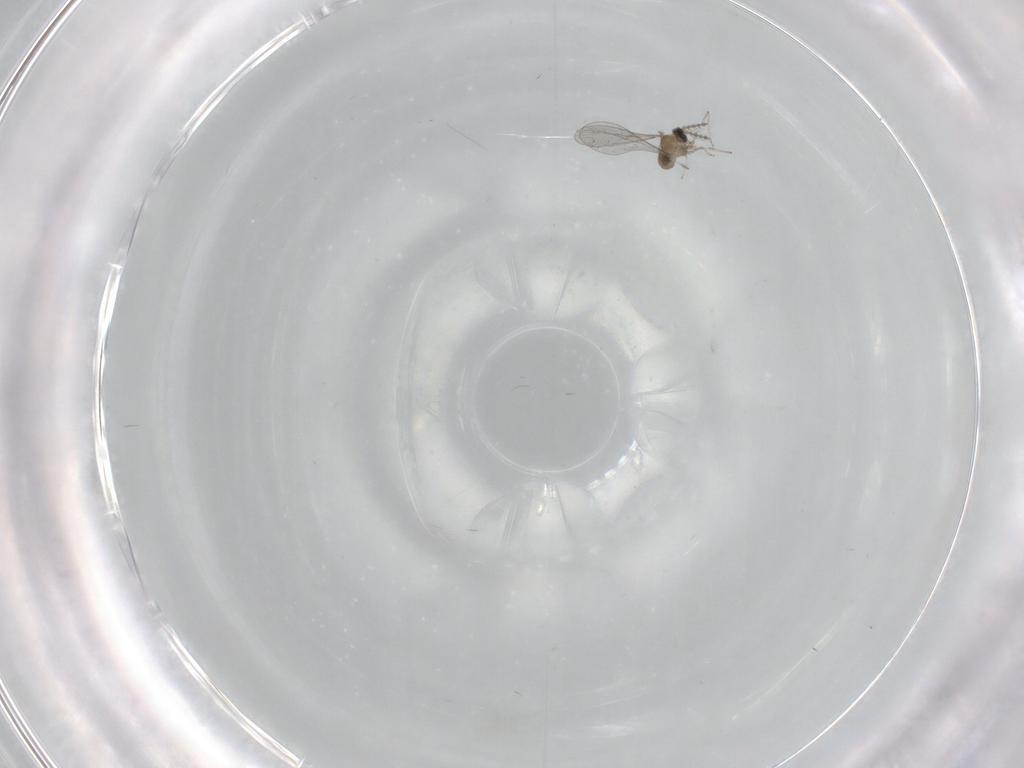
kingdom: Animalia
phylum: Arthropoda
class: Insecta
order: Diptera
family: Cecidomyiidae
